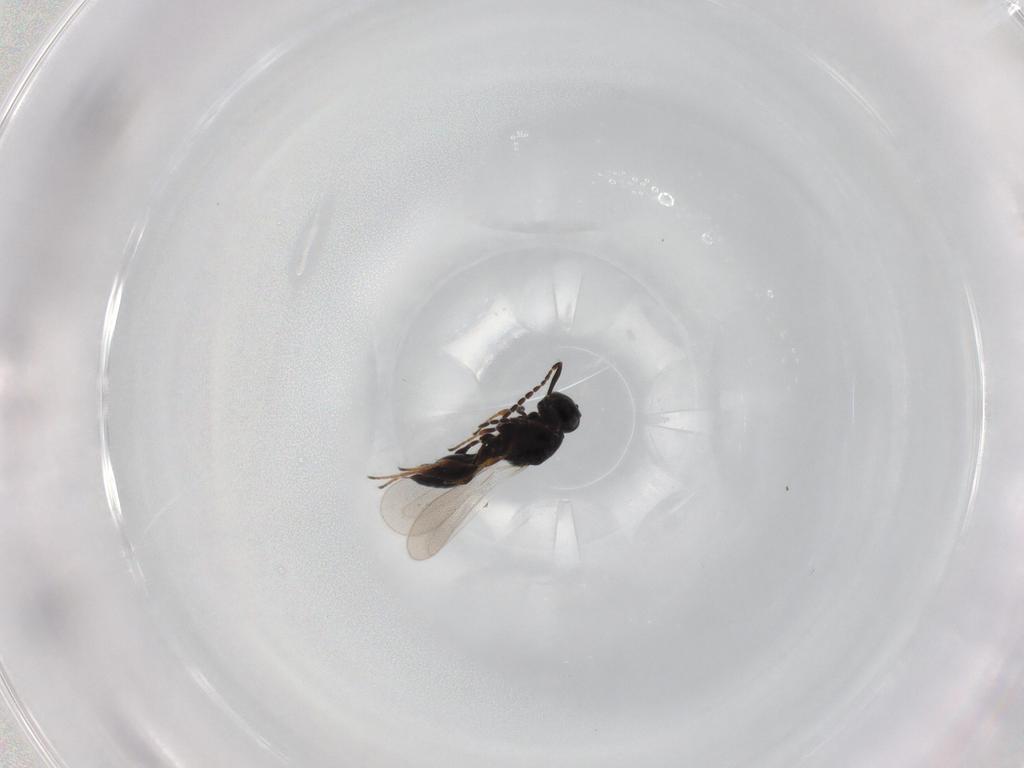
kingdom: Animalia
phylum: Arthropoda
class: Insecta
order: Hymenoptera
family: Platygastridae
